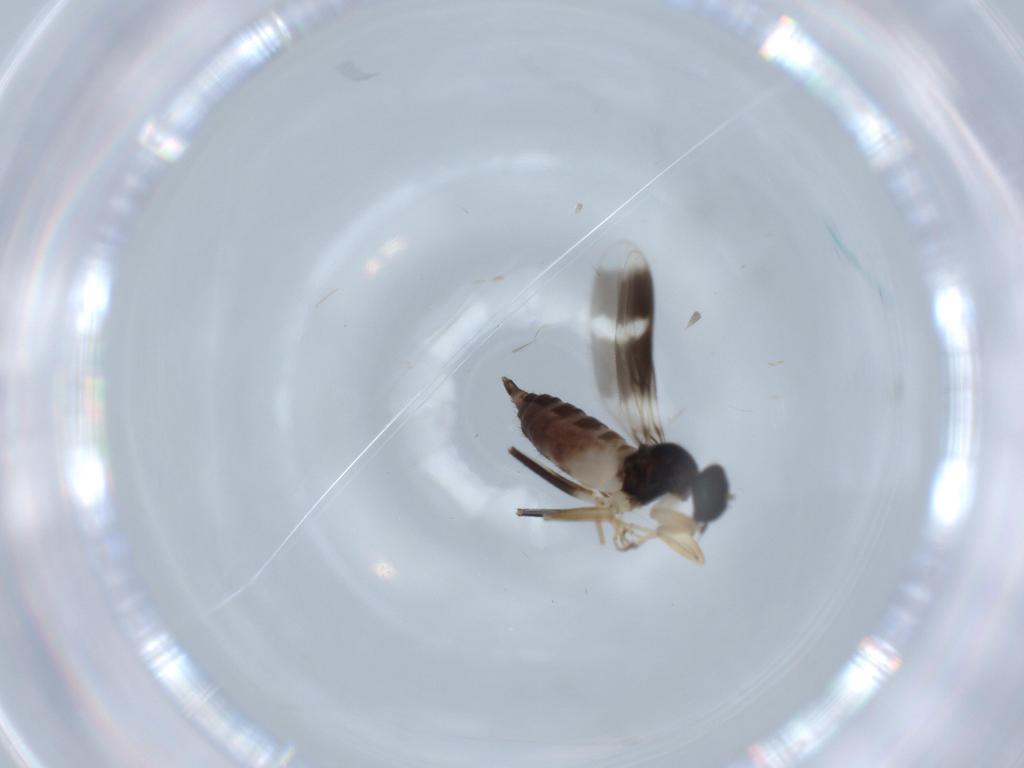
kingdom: Animalia
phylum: Arthropoda
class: Insecta
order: Diptera
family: Hybotidae
